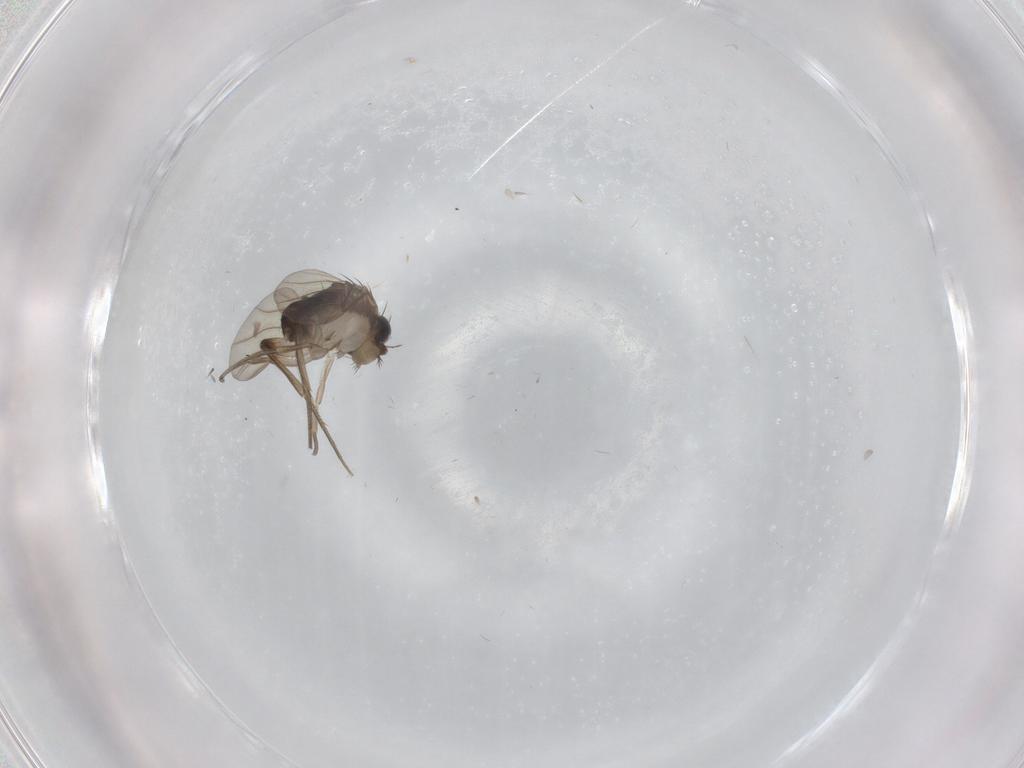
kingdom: Animalia
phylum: Arthropoda
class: Insecta
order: Diptera
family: Phoridae
